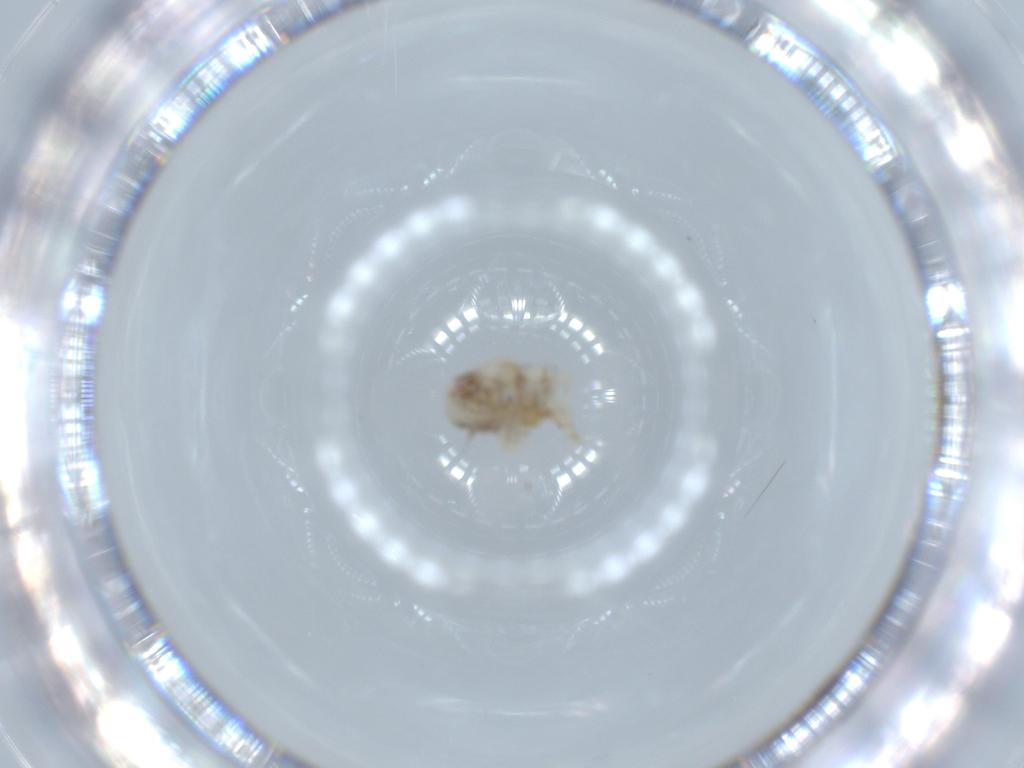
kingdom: Animalia
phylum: Arthropoda
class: Insecta
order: Hemiptera
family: Acanaloniidae
